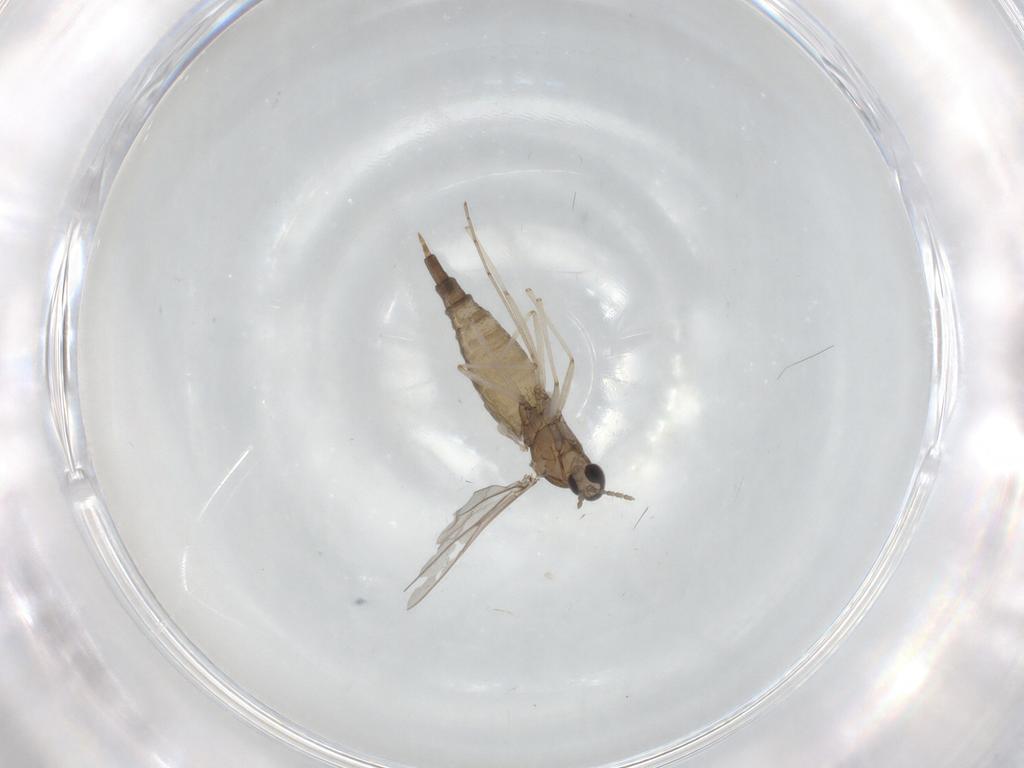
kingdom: Animalia
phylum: Arthropoda
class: Insecta
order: Diptera
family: Cecidomyiidae
